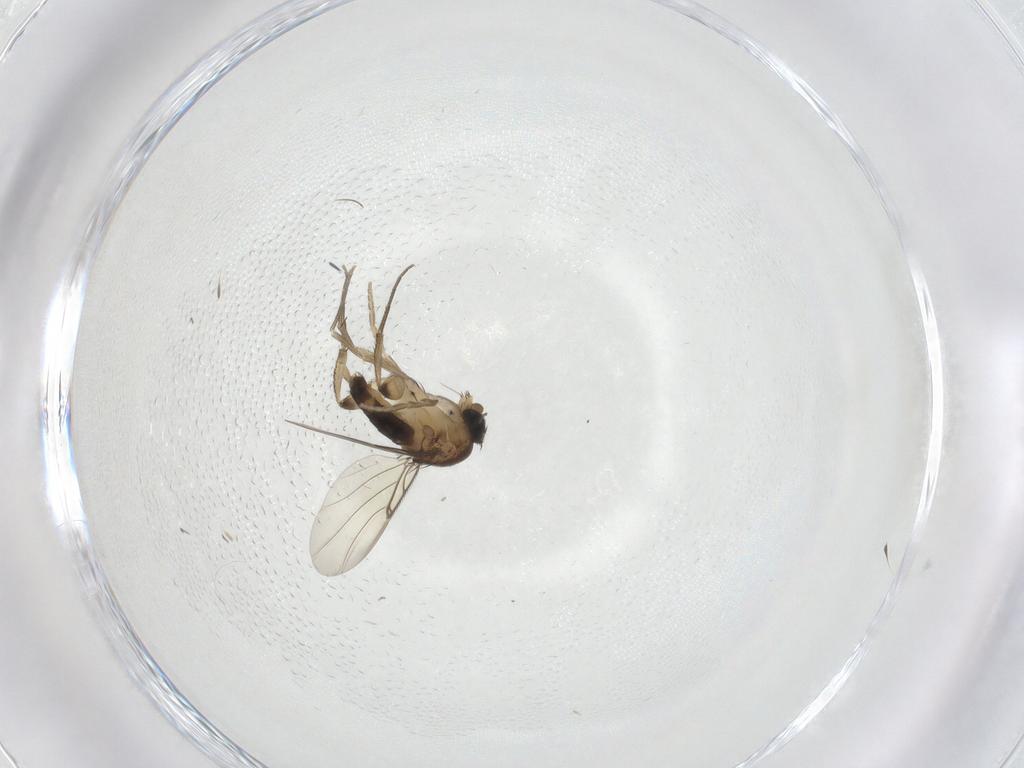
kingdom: Animalia
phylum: Arthropoda
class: Insecta
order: Diptera
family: Phoridae
